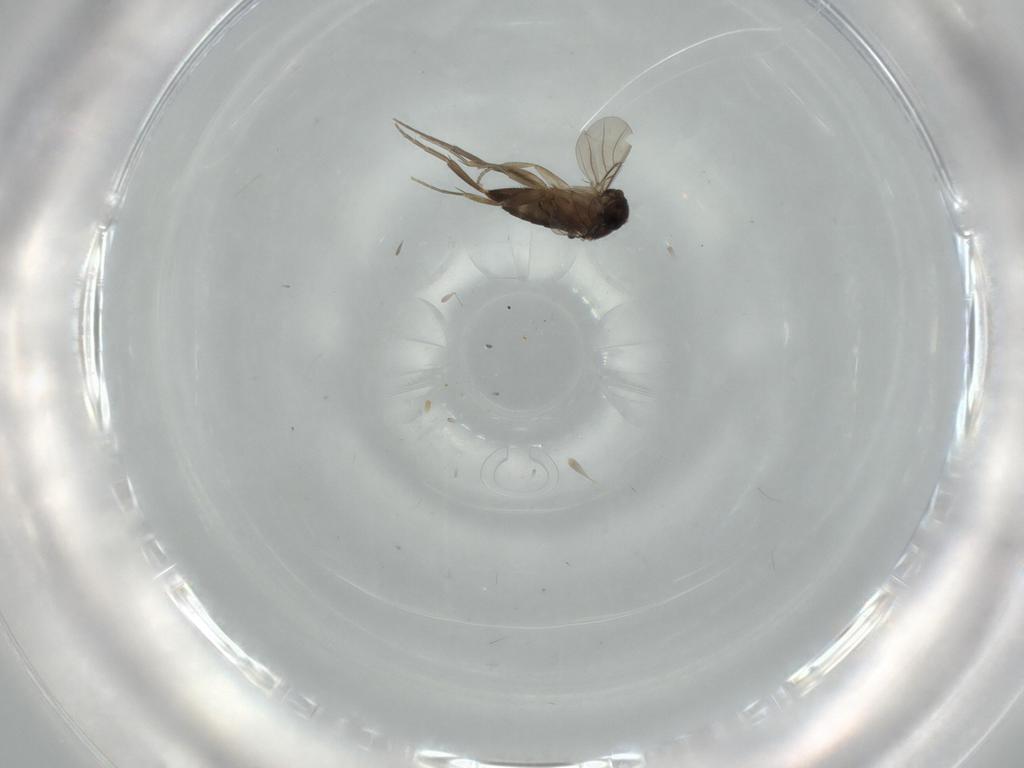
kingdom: Animalia
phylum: Arthropoda
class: Insecta
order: Diptera
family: Phoridae
